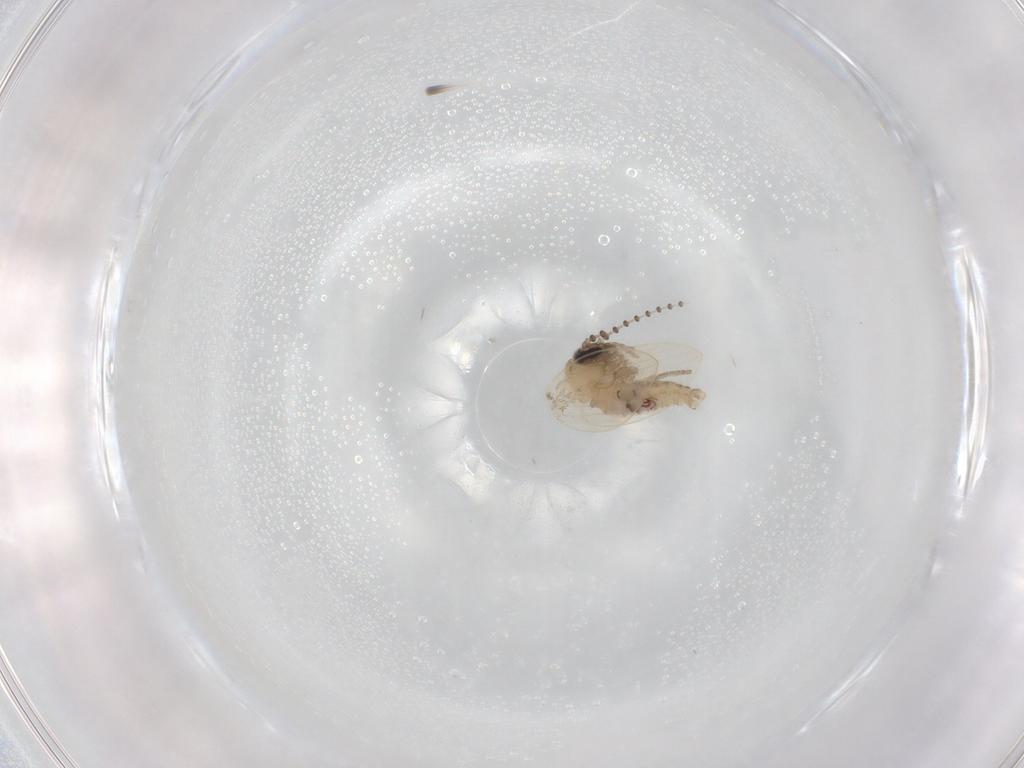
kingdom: Animalia
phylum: Arthropoda
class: Insecta
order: Diptera
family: Psychodidae
